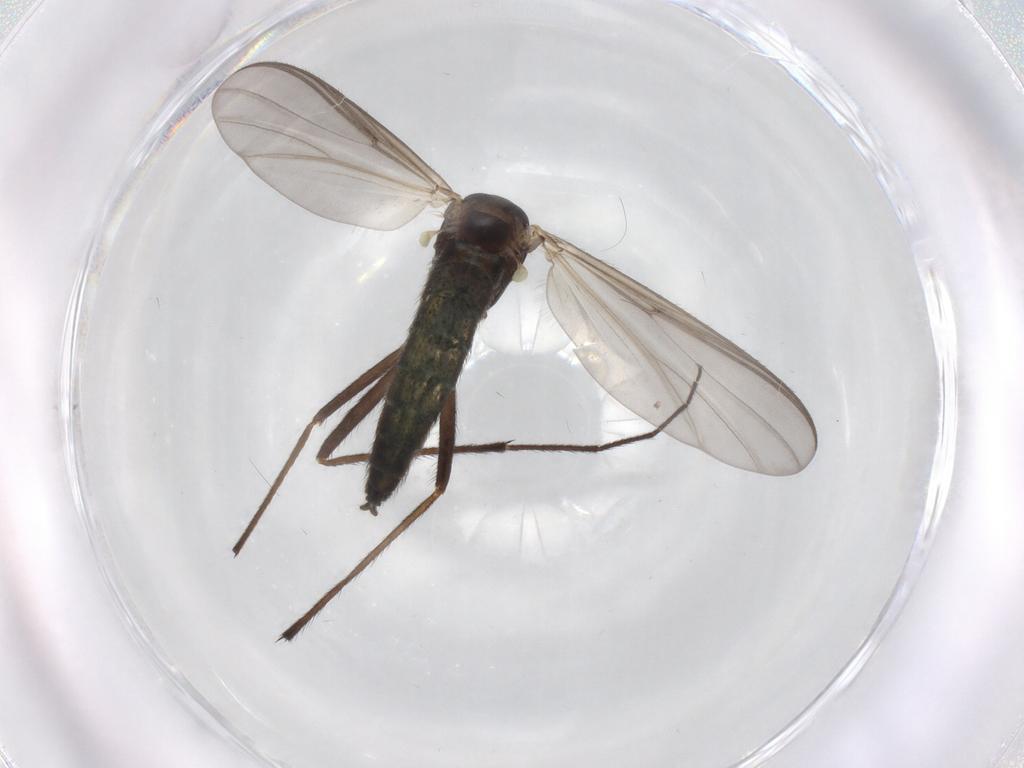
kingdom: Animalia
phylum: Arthropoda
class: Insecta
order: Diptera
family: Chironomidae
